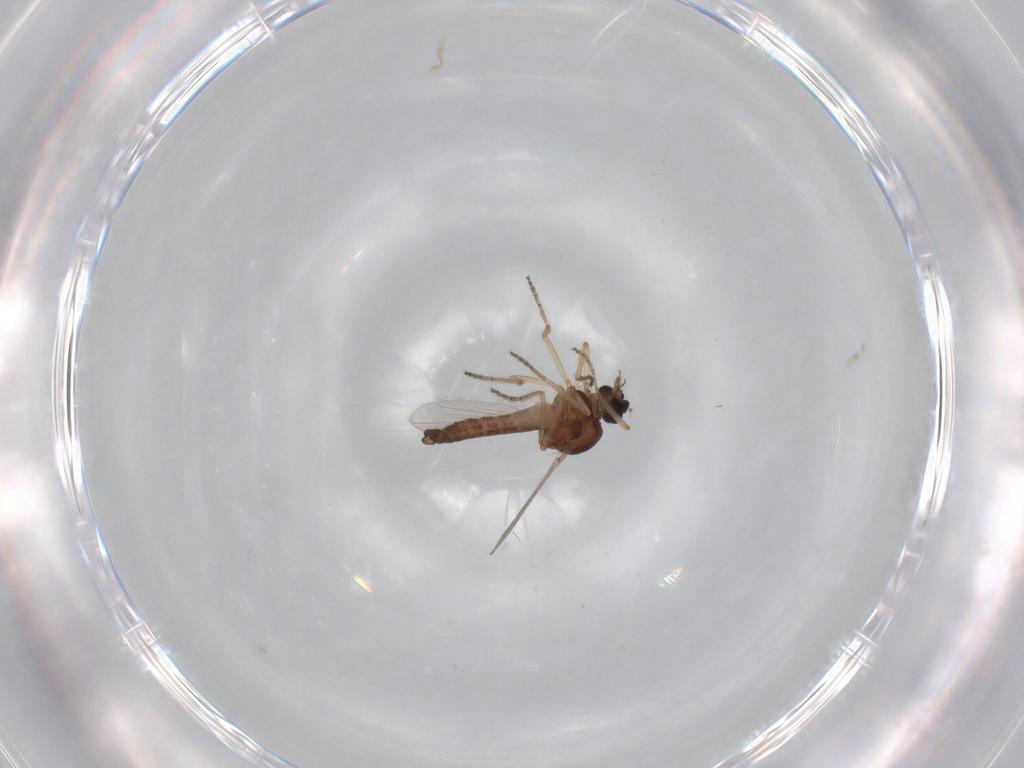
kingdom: Animalia
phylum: Arthropoda
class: Insecta
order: Diptera
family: Ceratopogonidae
